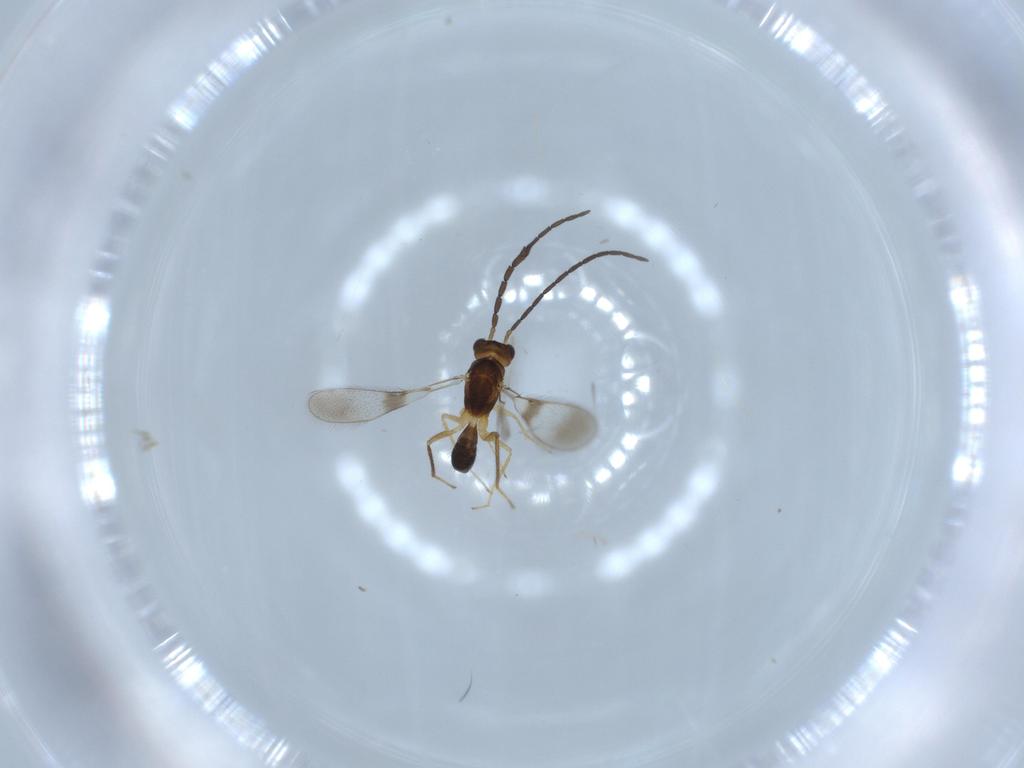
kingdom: Animalia
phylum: Arthropoda
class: Insecta
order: Hymenoptera
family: Mymaridae
